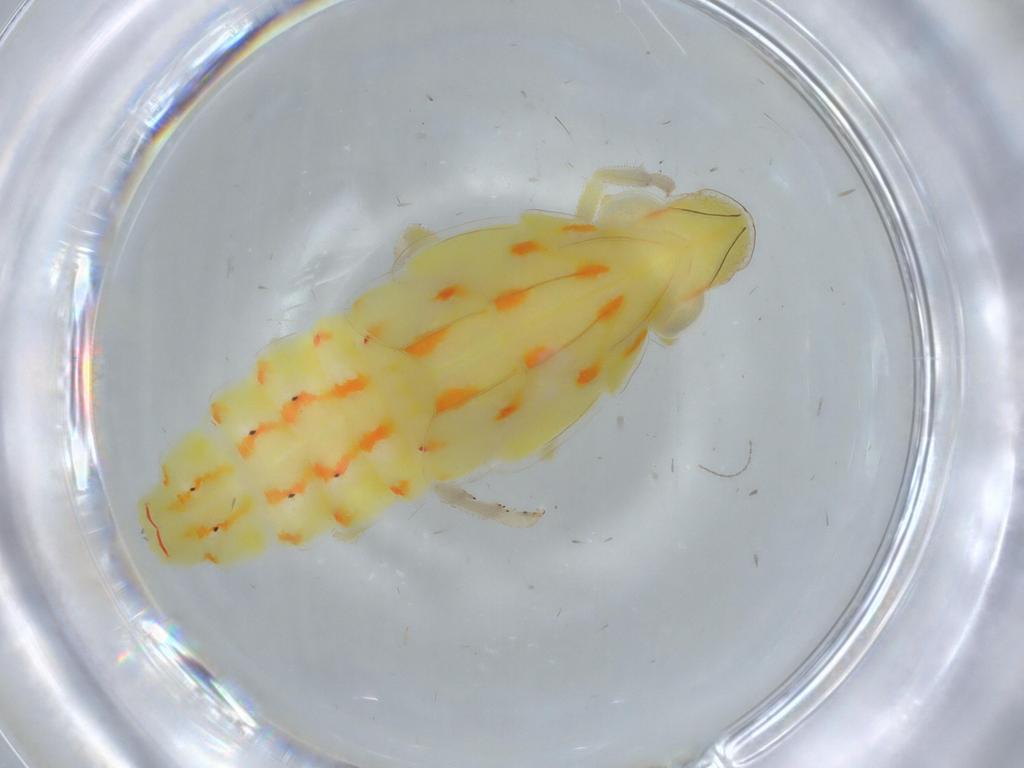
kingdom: Animalia
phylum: Arthropoda
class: Insecta
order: Hemiptera
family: Tropiduchidae
